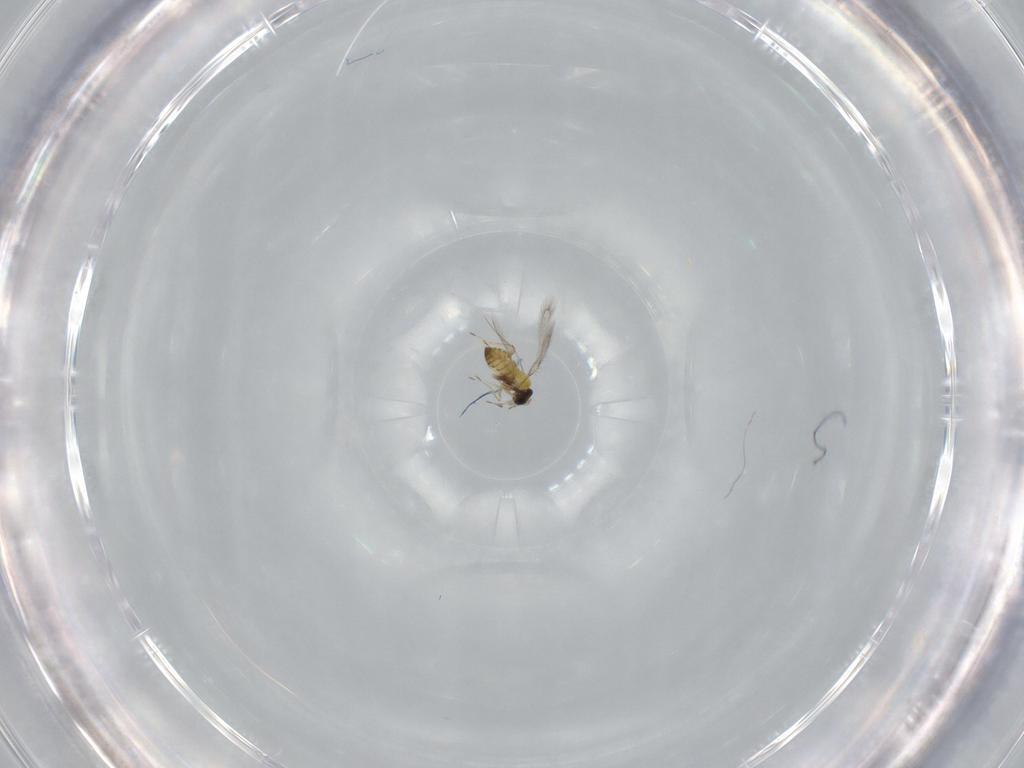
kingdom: Animalia
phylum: Arthropoda
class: Insecta
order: Hymenoptera
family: Trichogrammatidae
